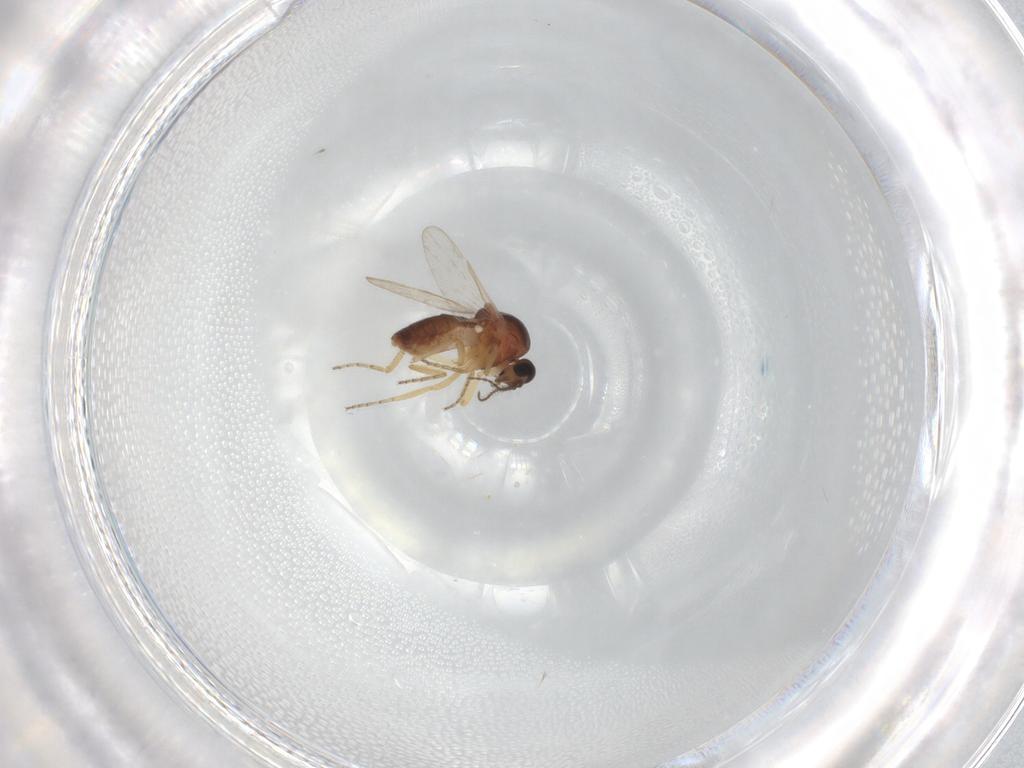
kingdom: Animalia
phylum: Arthropoda
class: Insecta
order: Diptera
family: Ceratopogonidae
